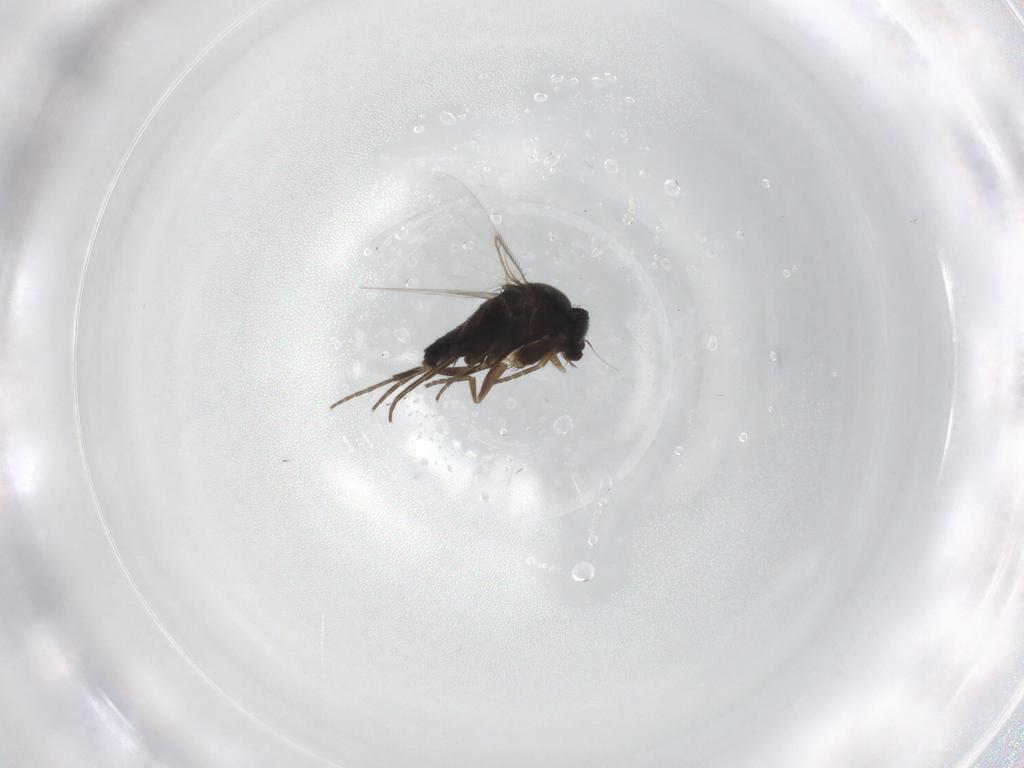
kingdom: Animalia
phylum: Arthropoda
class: Insecta
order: Diptera
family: Phoridae
